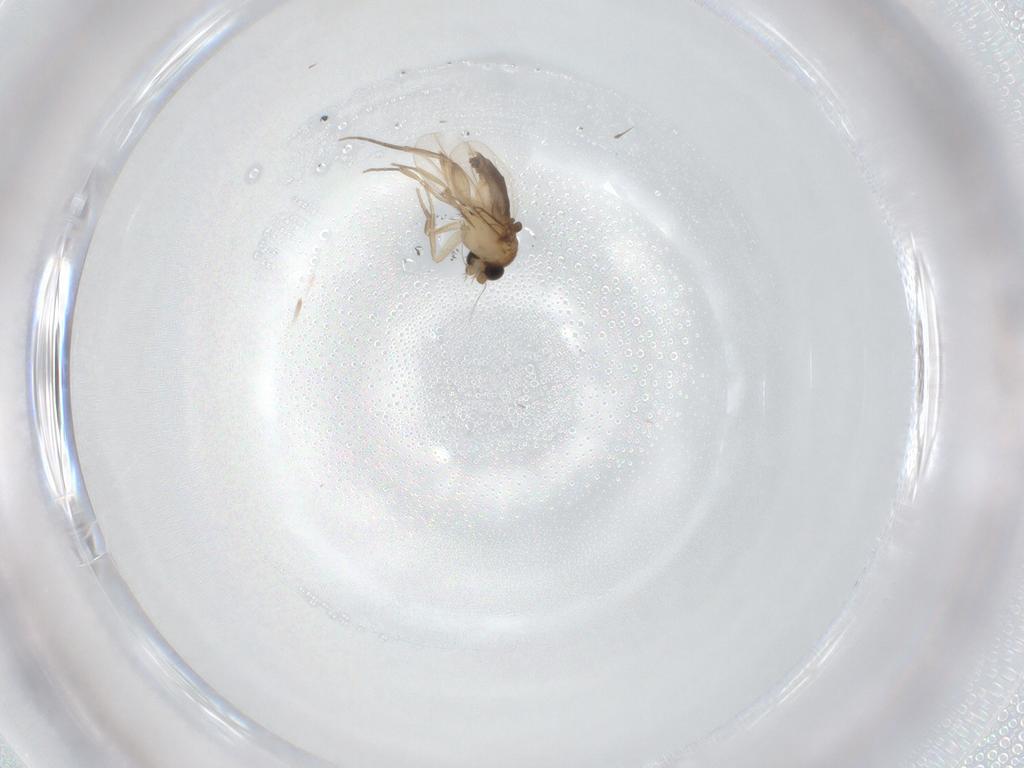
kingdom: Animalia
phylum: Arthropoda
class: Insecta
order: Diptera
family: Phoridae
